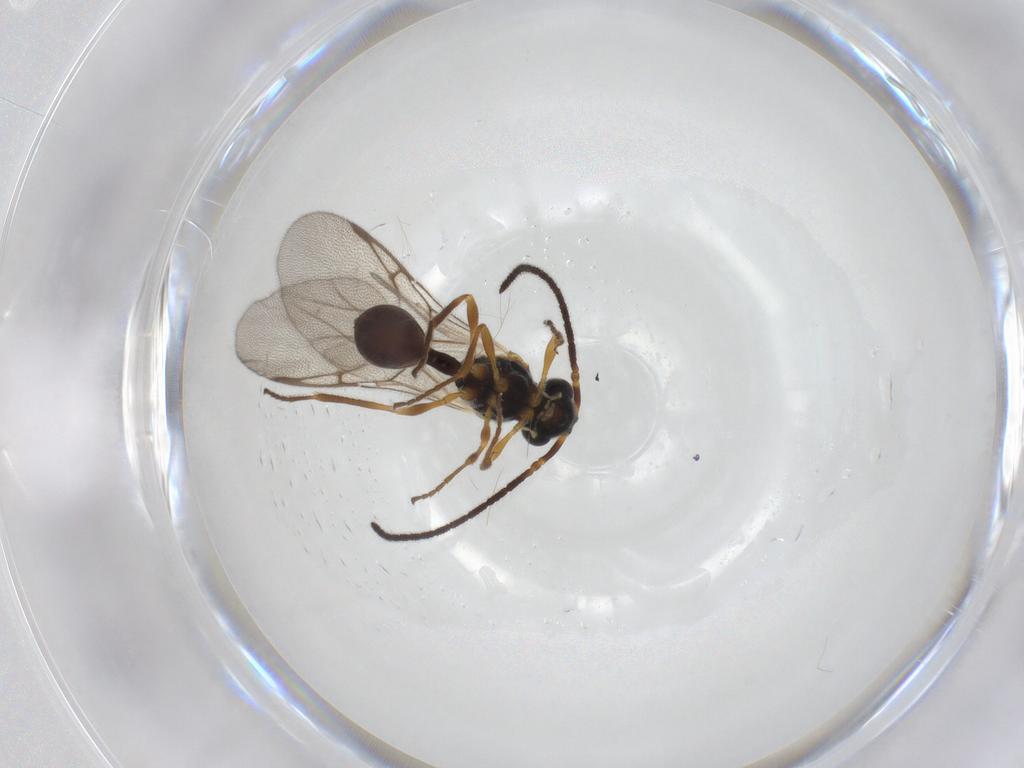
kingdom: Animalia
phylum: Arthropoda
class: Insecta
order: Hymenoptera
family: Diapriidae
